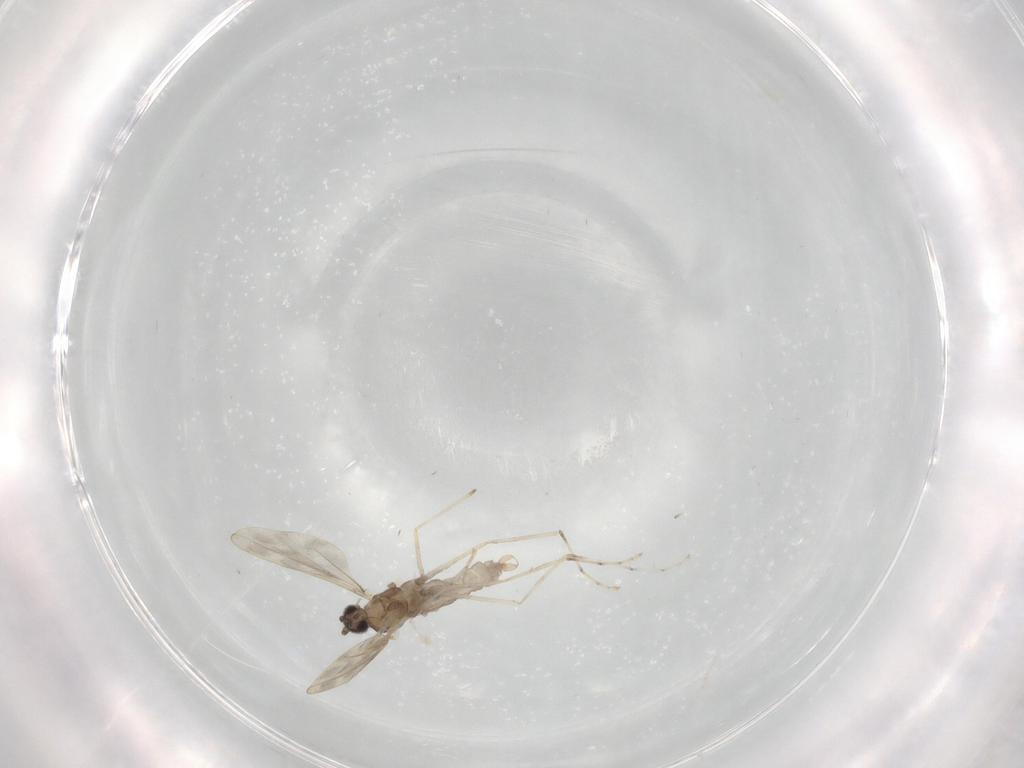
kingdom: Animalia
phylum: Arthropoda
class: Insecta
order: Diptera
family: Cecidomyiidae
